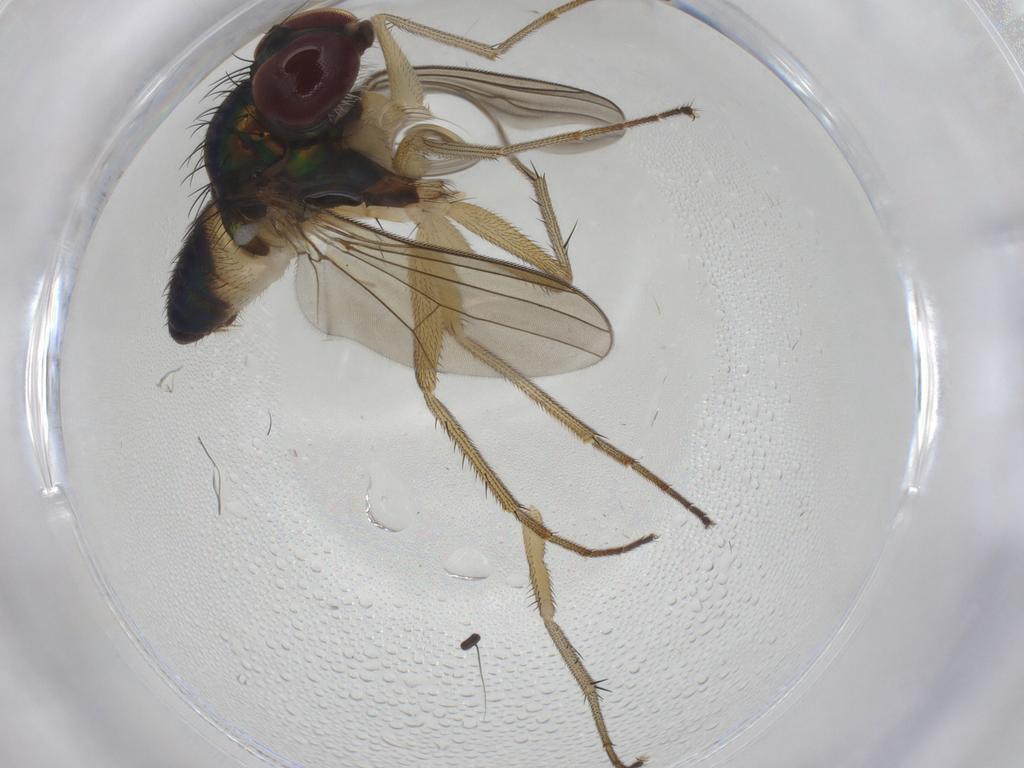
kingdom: Animalia
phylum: Arthropoda
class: Insecta
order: Diptera
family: Dolichopodidae
